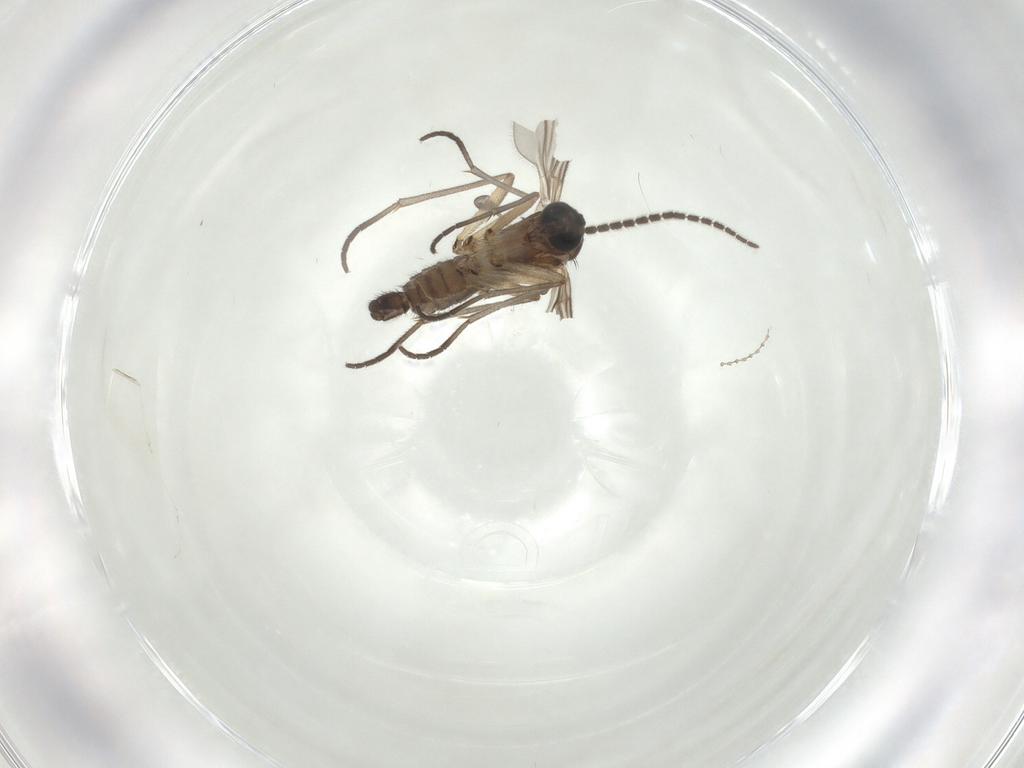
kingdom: Animalia
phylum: Arthropoda
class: Insecta
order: Diptera
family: Sciaridae
